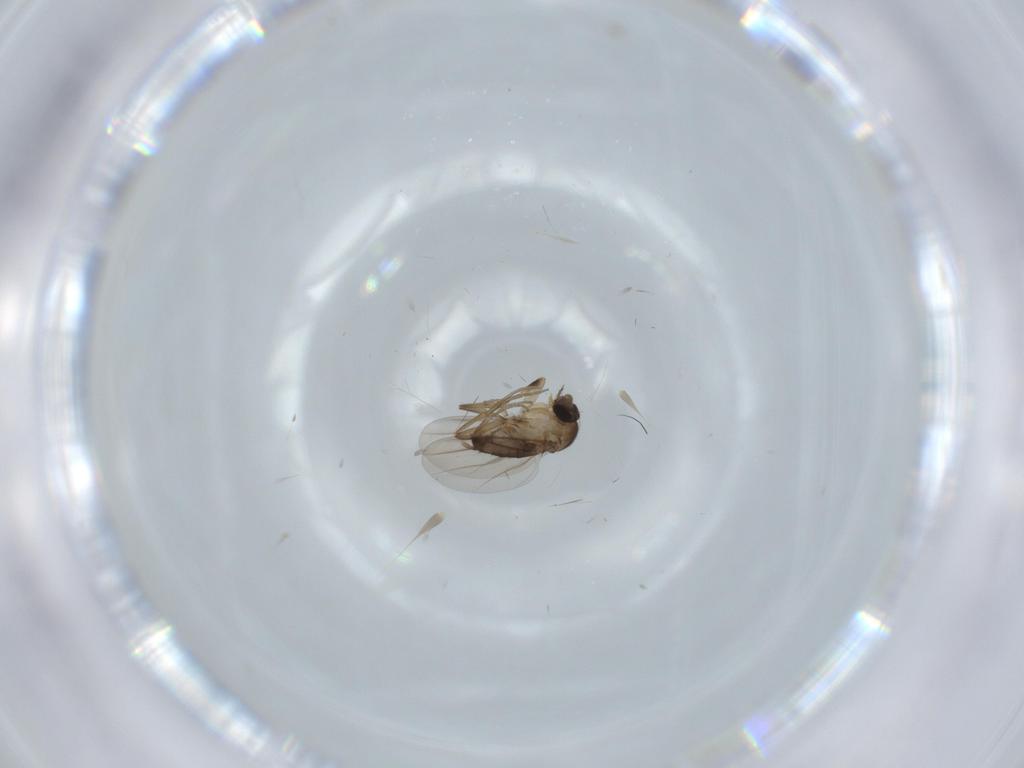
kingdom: Animalia
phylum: Arthropoda
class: Insecta
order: Diptera
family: Phoridae
